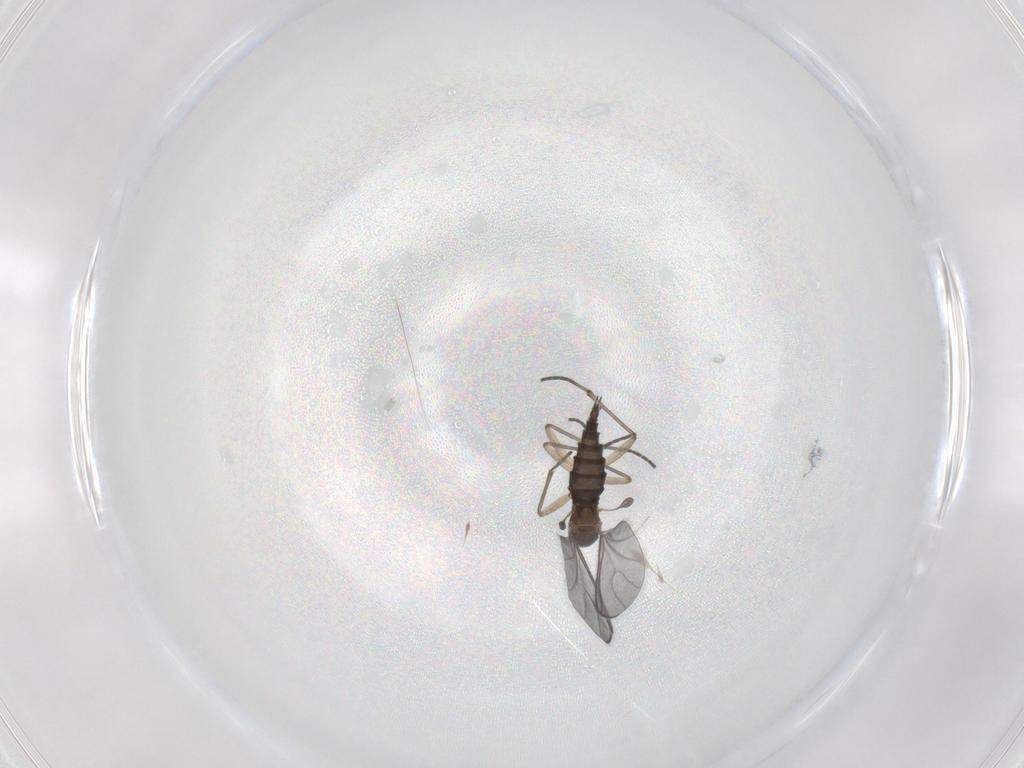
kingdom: Animalia
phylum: Arthropoda
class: Insecta
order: Diptera
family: Sciaridae
